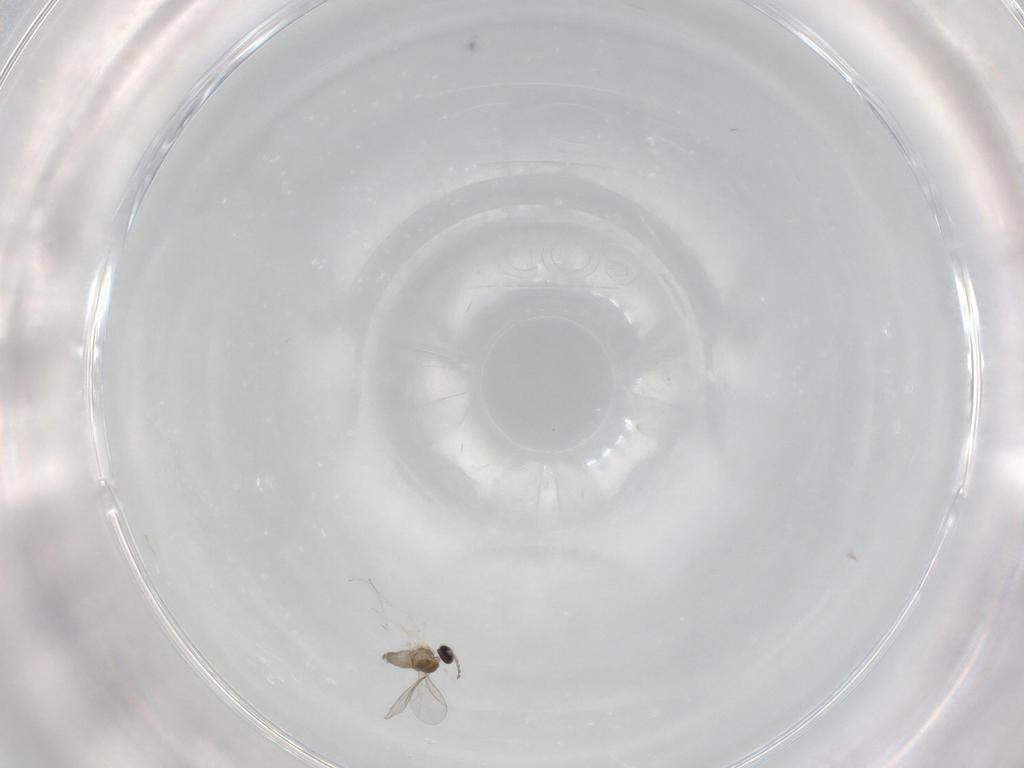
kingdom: Animalia
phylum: Arthropoda
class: Insecta
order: Diptera
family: Cecidomyiidae
